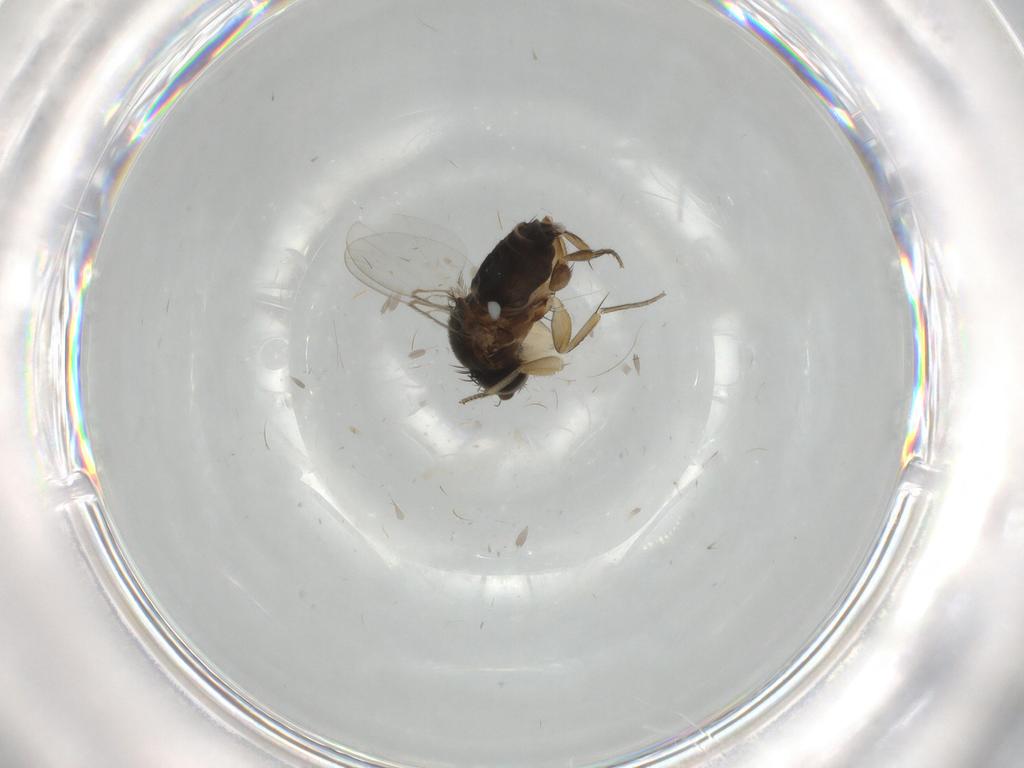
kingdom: Animalia
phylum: Arthropoda
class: Insecta
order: Diptera
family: Phoridae
